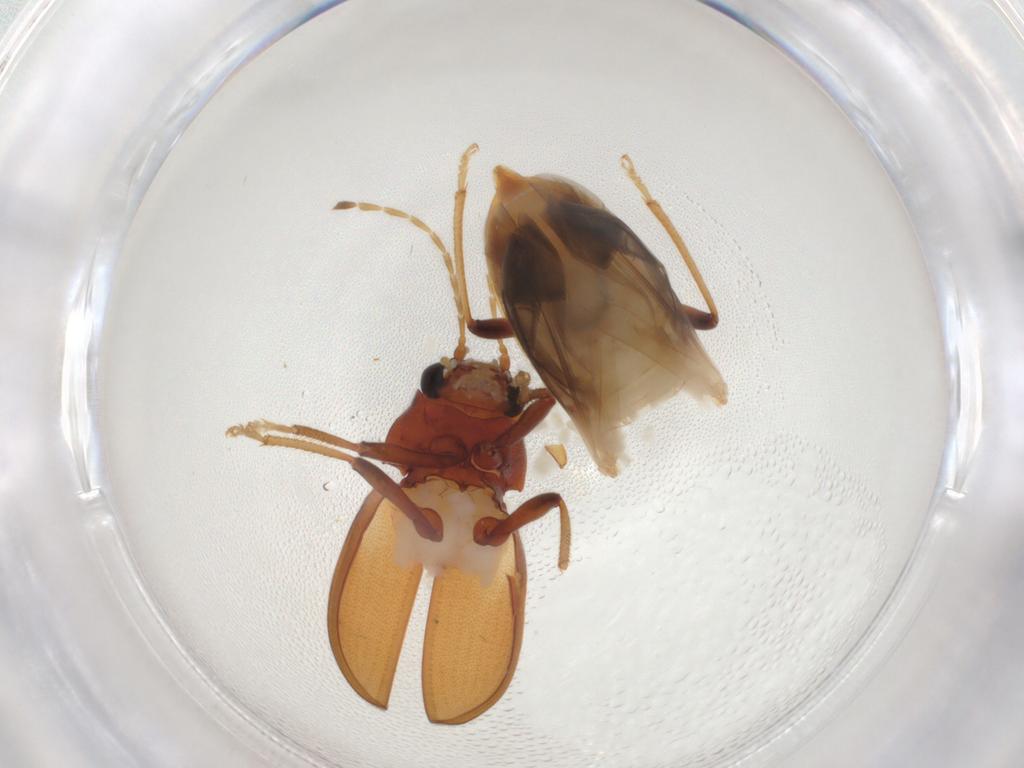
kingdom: Animalia
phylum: Arthropoda
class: Insecta
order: Coleoptera
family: Ptilodactylidae
